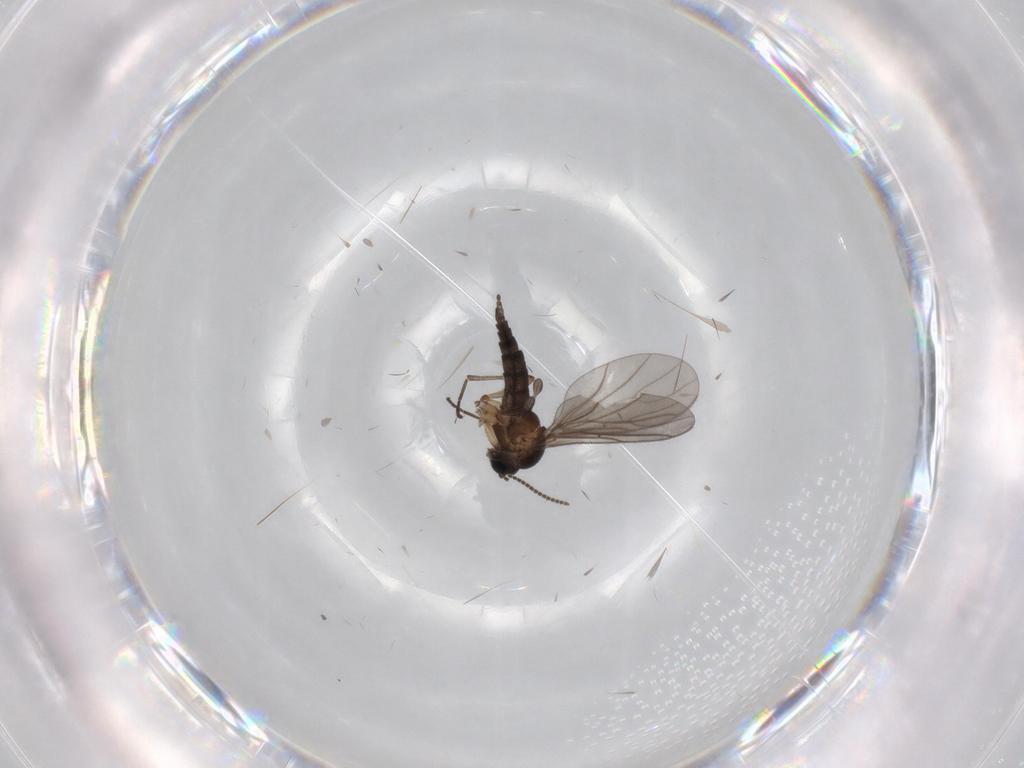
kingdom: Animalia
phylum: Arthropoda
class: Insecta
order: Diptera
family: Sciaridae
